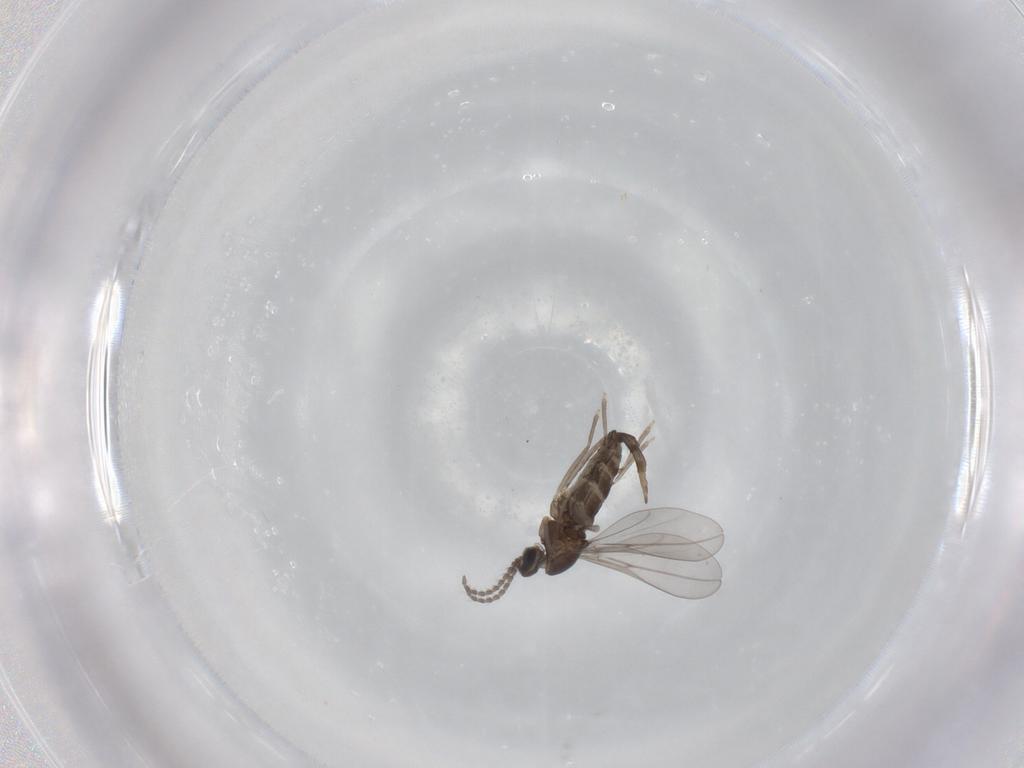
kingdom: Animalia
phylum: Arthropoda
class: Insecta
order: Diptera
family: Cecidomyiidae
